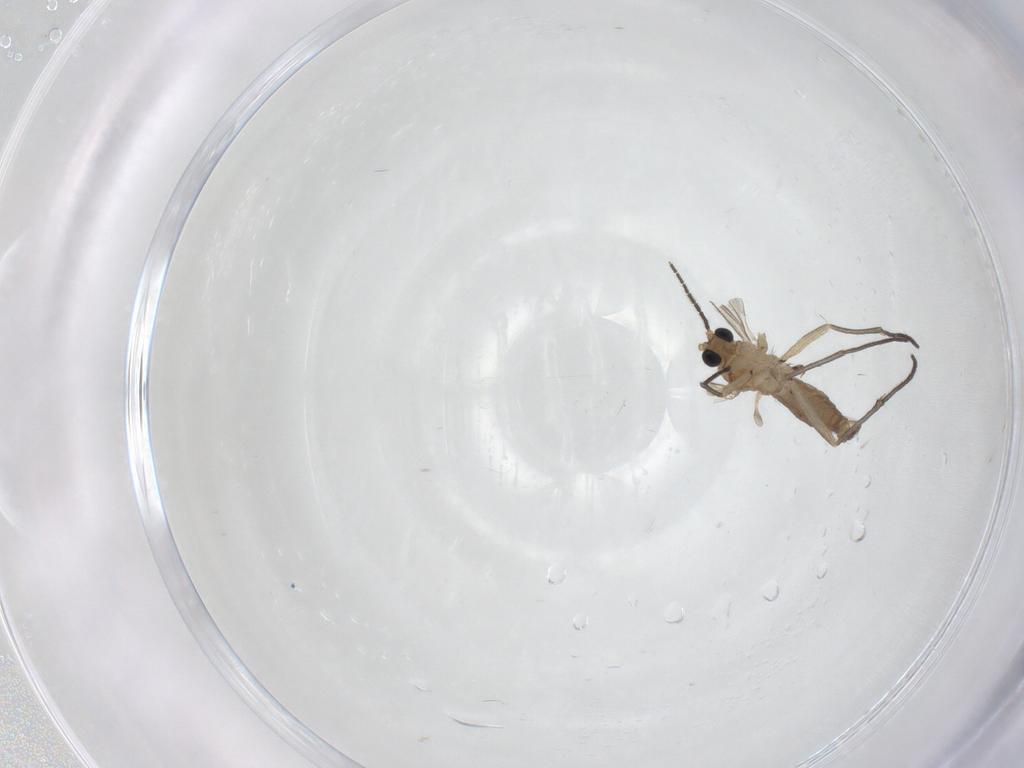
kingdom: Animalia
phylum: Arthropoda
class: Insecta
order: Diptera
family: Sciaridae
